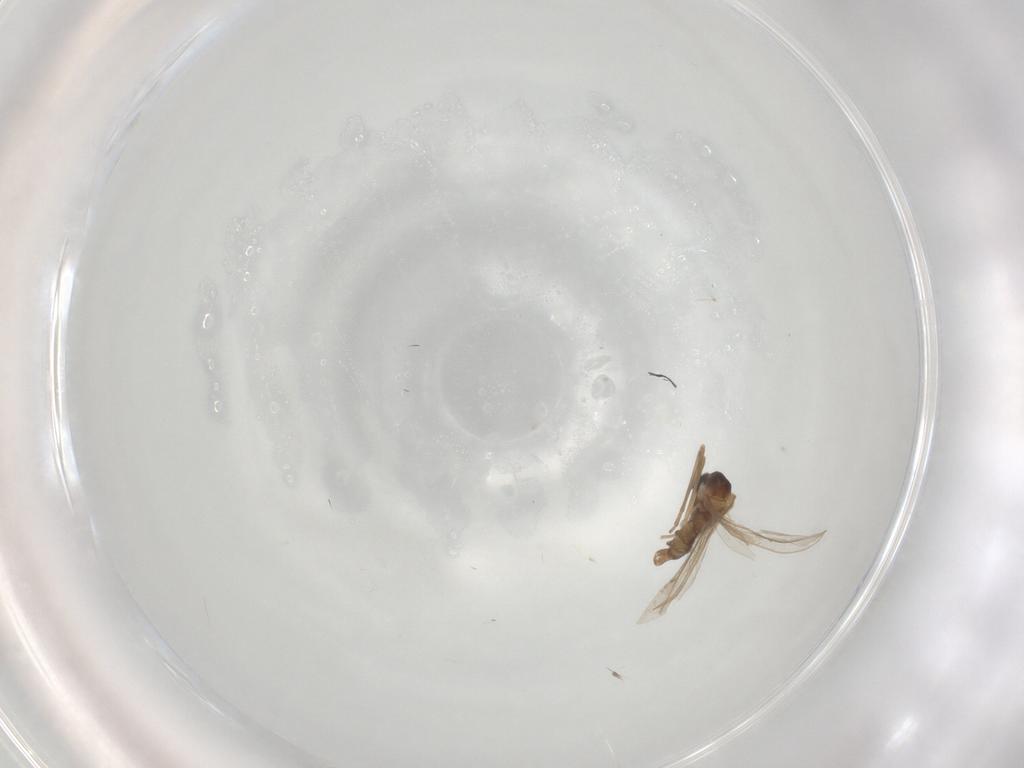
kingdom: Animalia
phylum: Arthropoda
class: Insecta
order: Diptera
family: Cecidomyiidae
